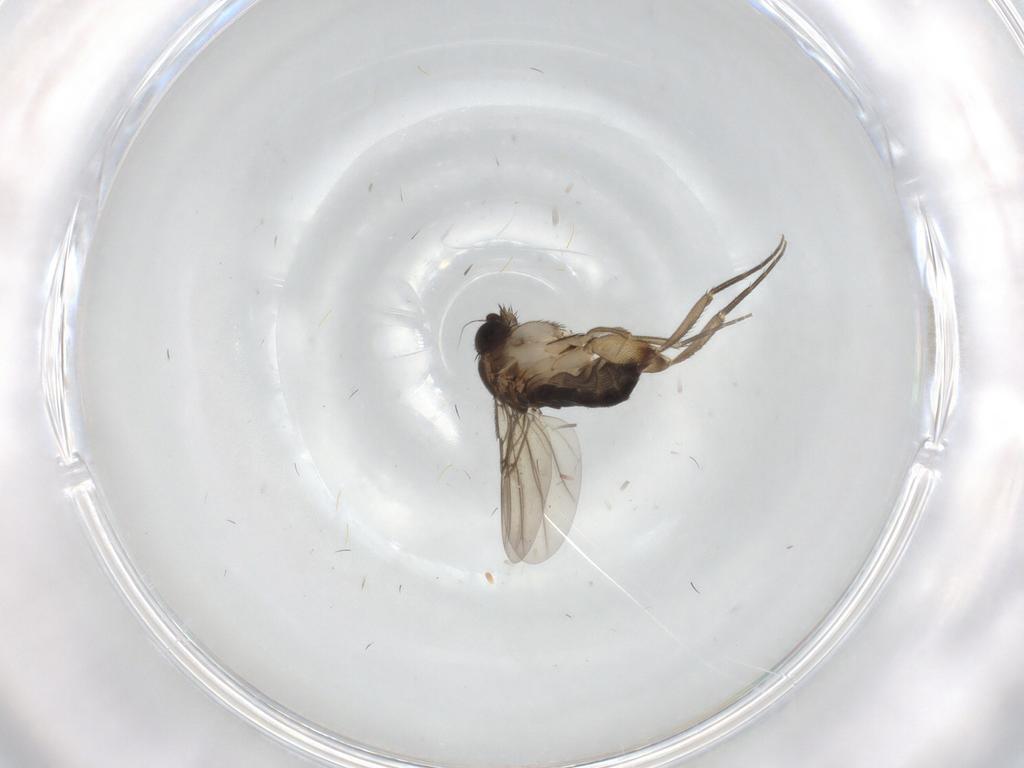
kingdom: Animalia
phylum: Arthropoda
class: Insecta
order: Diptera
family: Phoridae
